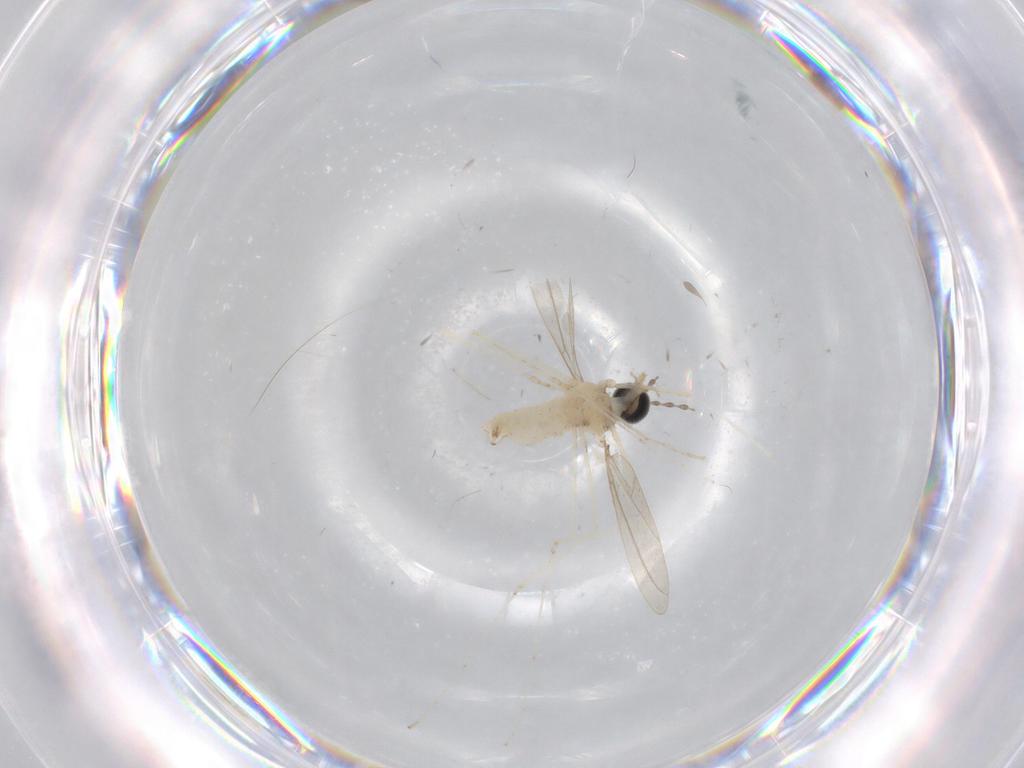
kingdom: Animalia
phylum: Arthropoda
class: Insecta
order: Diptera
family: Cecidomyiidae
